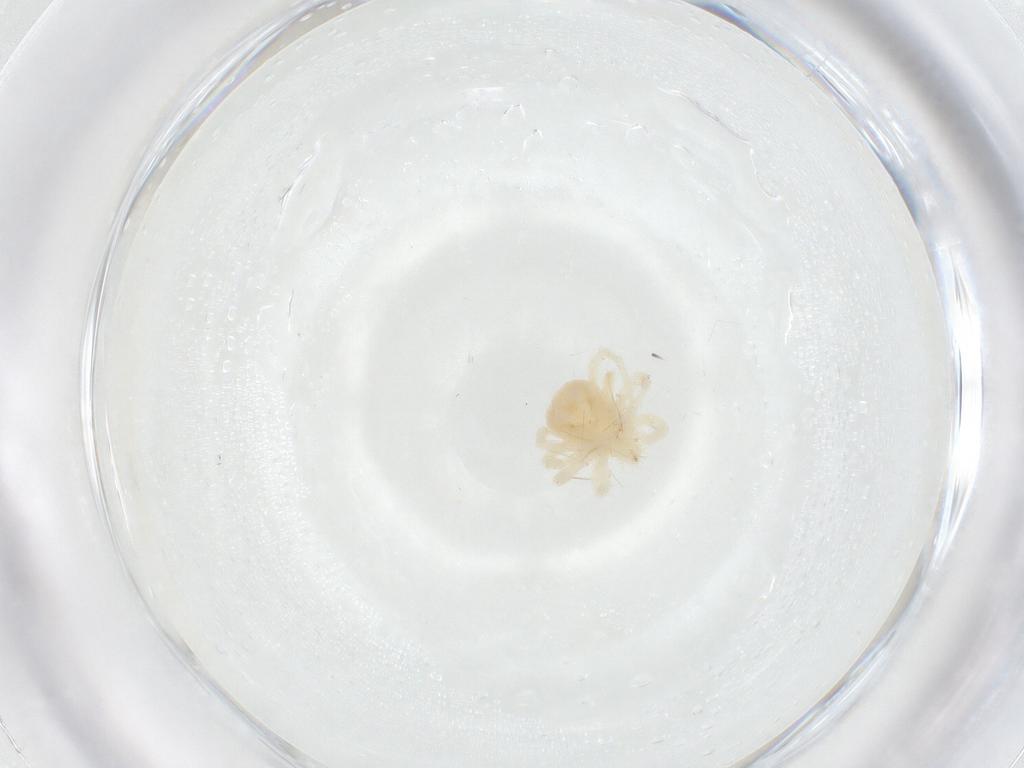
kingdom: Animalia
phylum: Arthropoda
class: Arachnida
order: Trombidiformes
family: Anystidae
